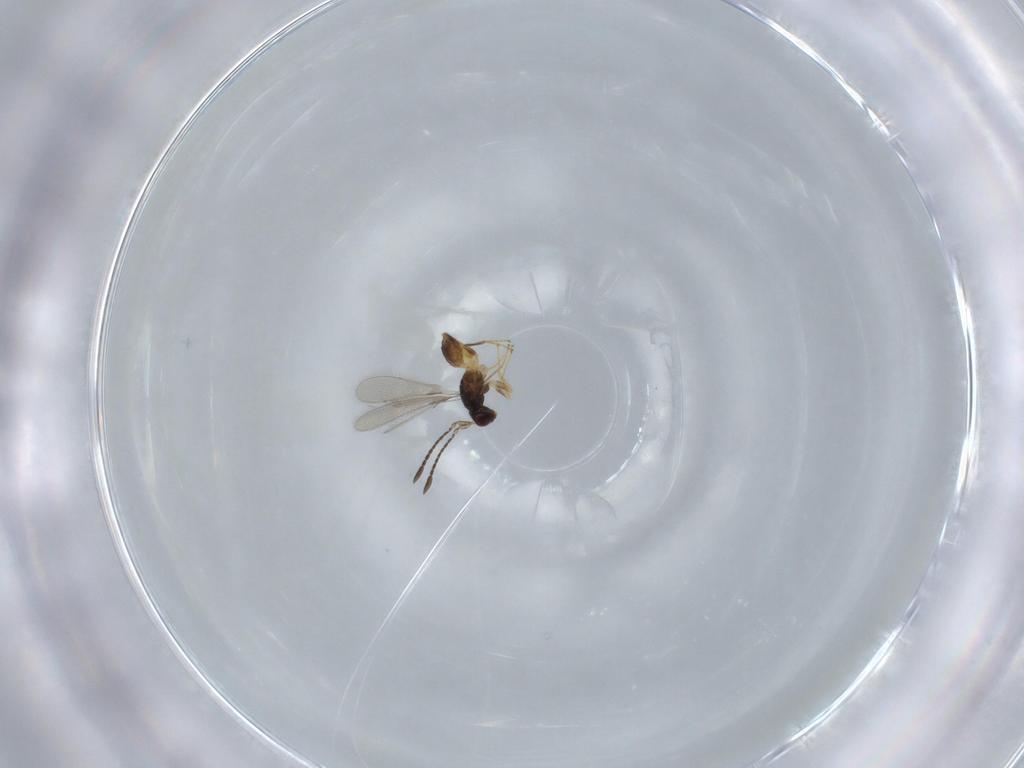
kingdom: Animalia
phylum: Arthropoda
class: Insecta
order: Hymenoptera
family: Mymaridae
